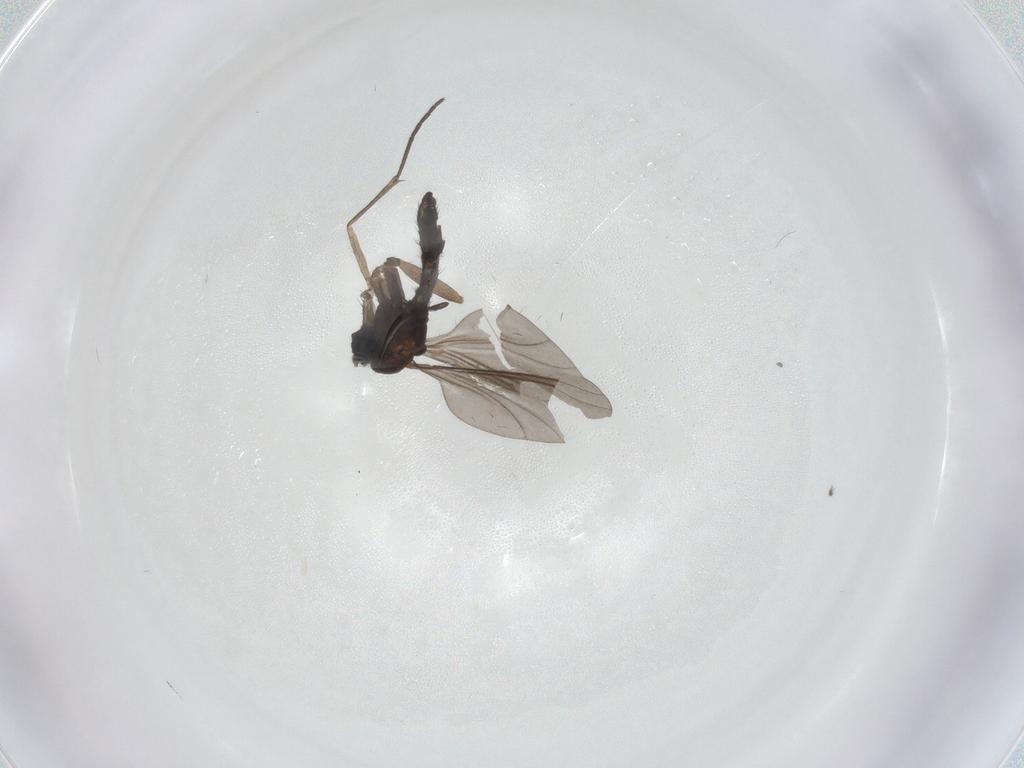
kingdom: Animalia
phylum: Arthropoda
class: Insecta
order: Diptera
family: Sciaridae
